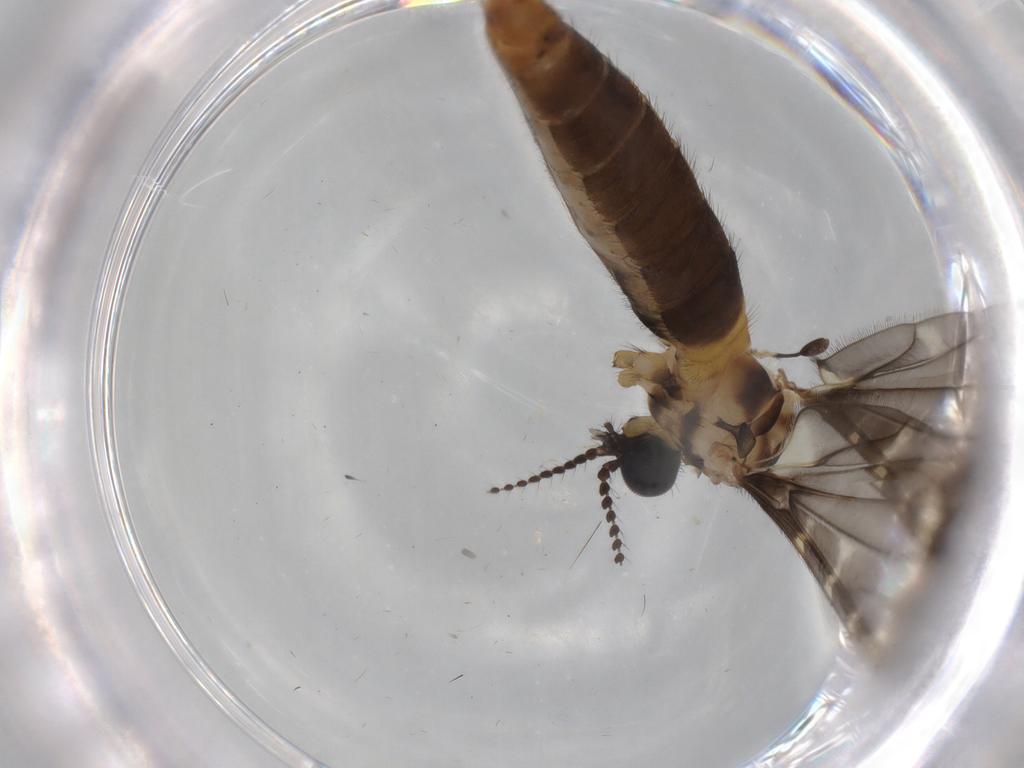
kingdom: Animalia
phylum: Arthropoda
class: Insecta
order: Diptera
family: Limoniidae
